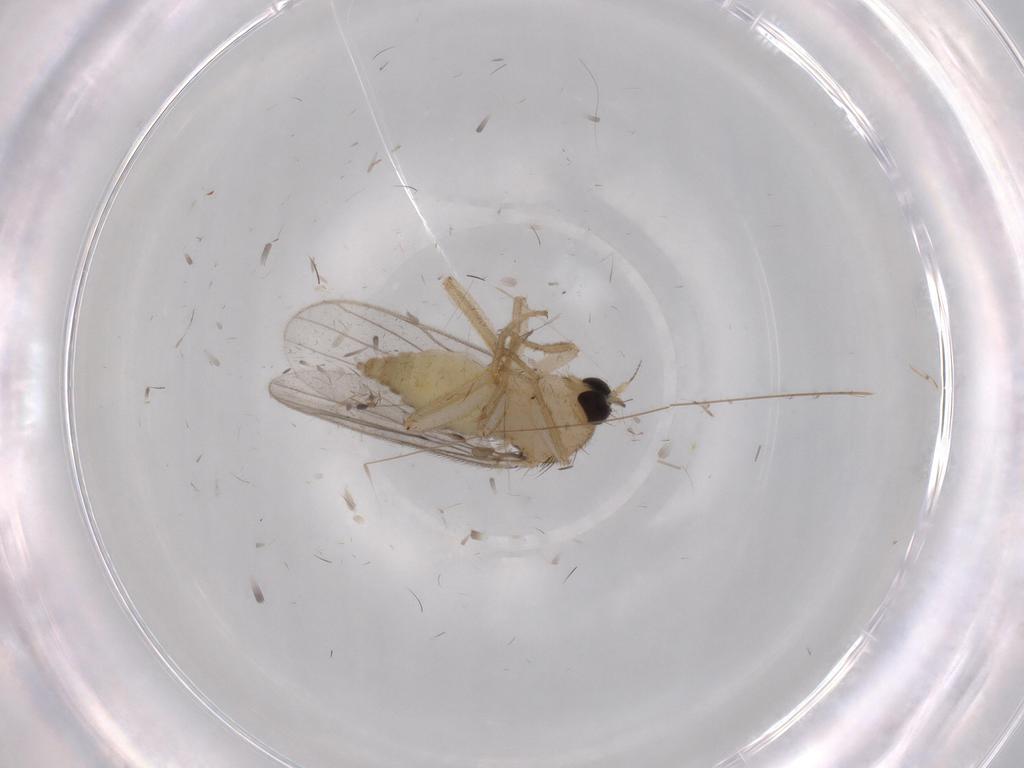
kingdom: Animalia
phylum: Arthropoda
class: Insecta
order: Diptera
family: Hybotidae
